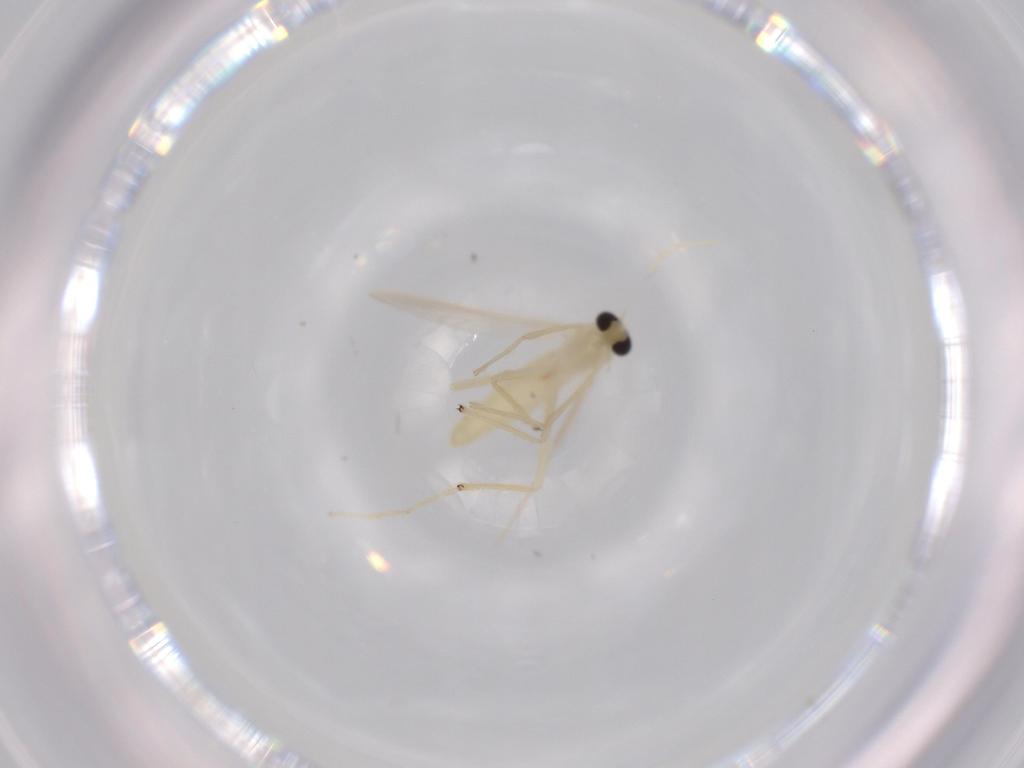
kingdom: Animalia
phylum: Arthropoda
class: Insecta
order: Diptera
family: Chironomidae
